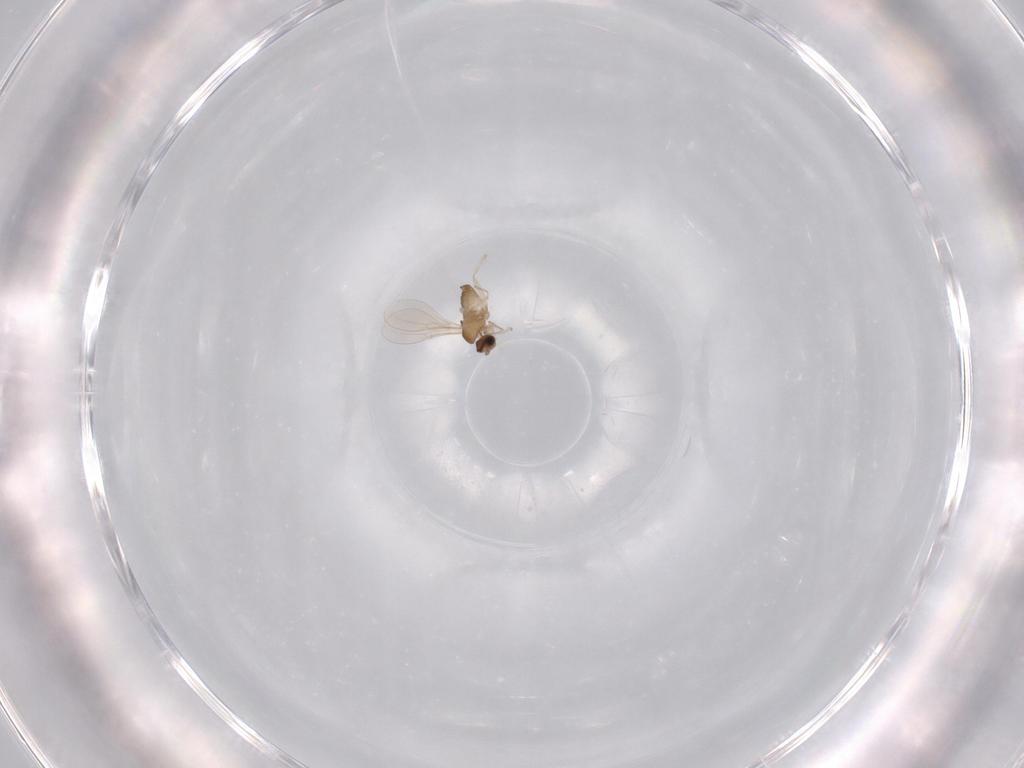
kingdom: Animalia
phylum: Arthropoda
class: Insecta
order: Diptera
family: Cecidomyiidae
